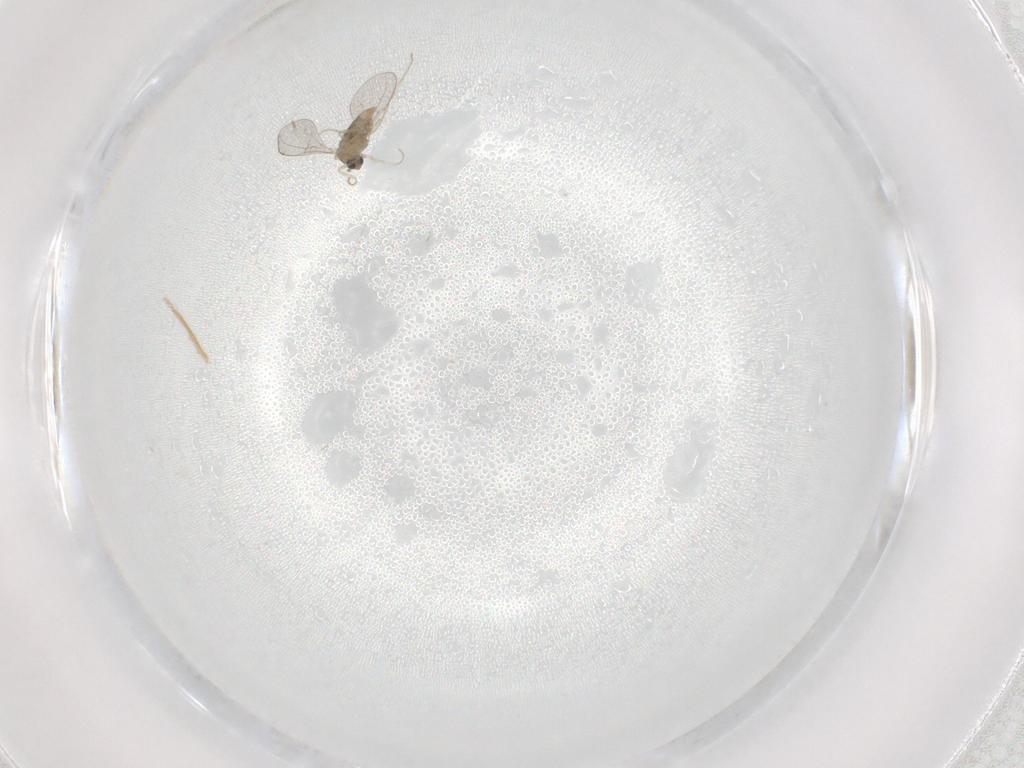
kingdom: Animalia
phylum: Arthropoda
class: Insecta
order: Diptera
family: Cecidomyiidae
